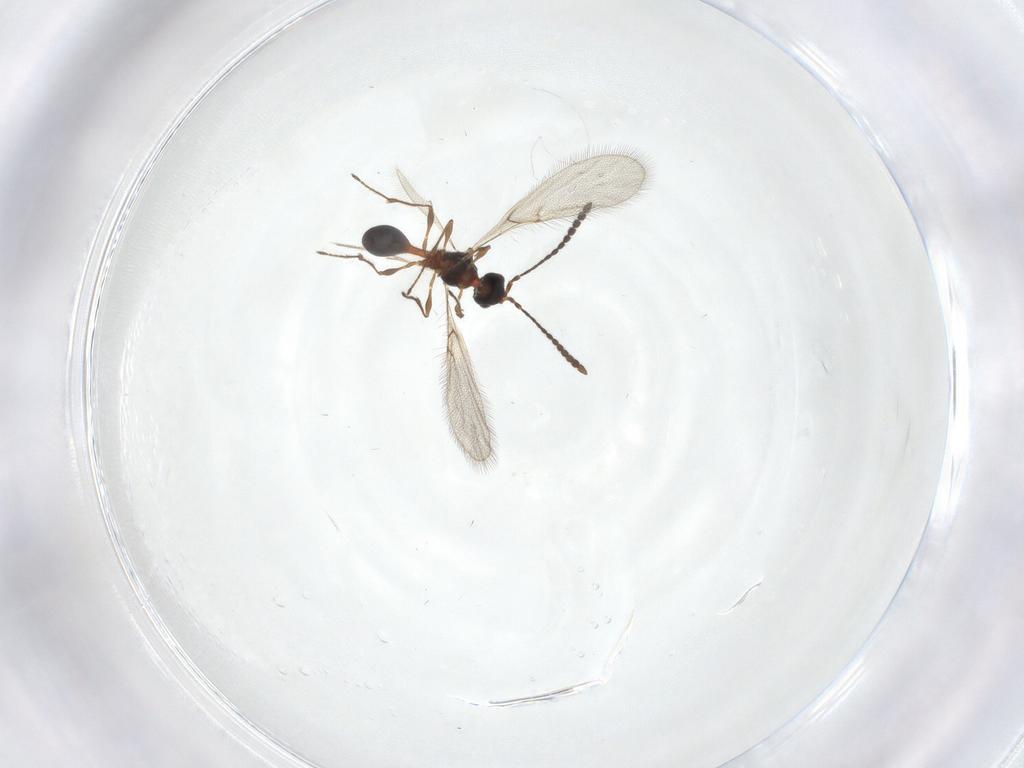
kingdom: Animalia
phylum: Arthropoda
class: Insecta
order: Hymenoptera
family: Diapriidae
